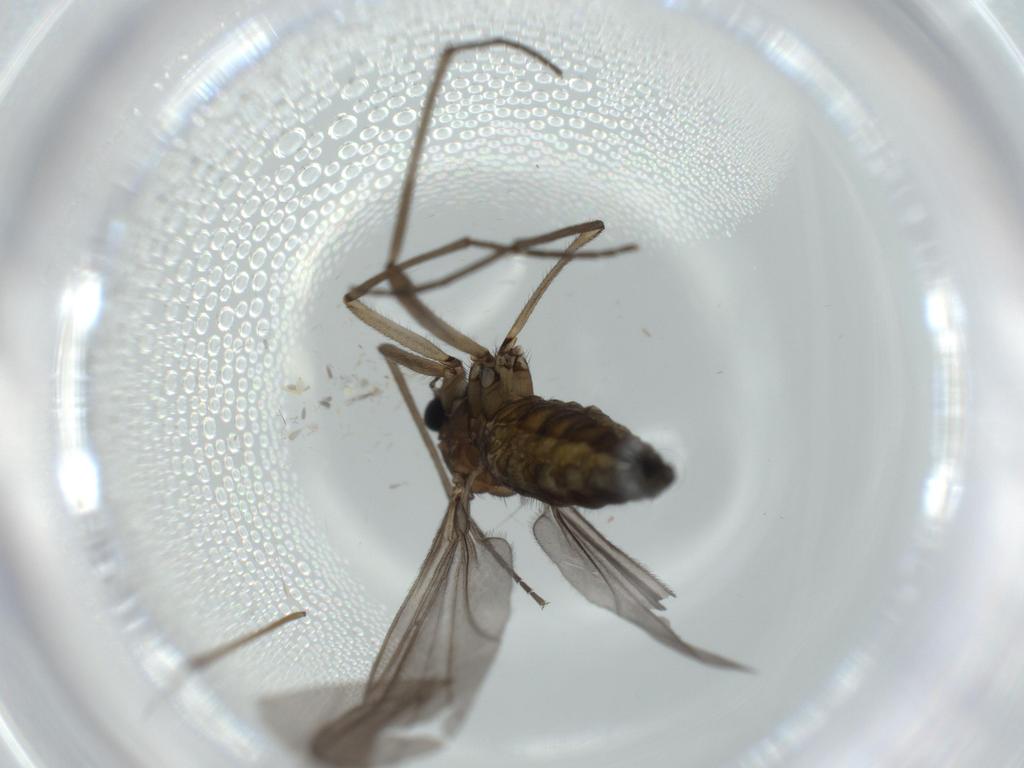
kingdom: Animalia
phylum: Arthropoda
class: Insecta
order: Diptera
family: Sciaridae
